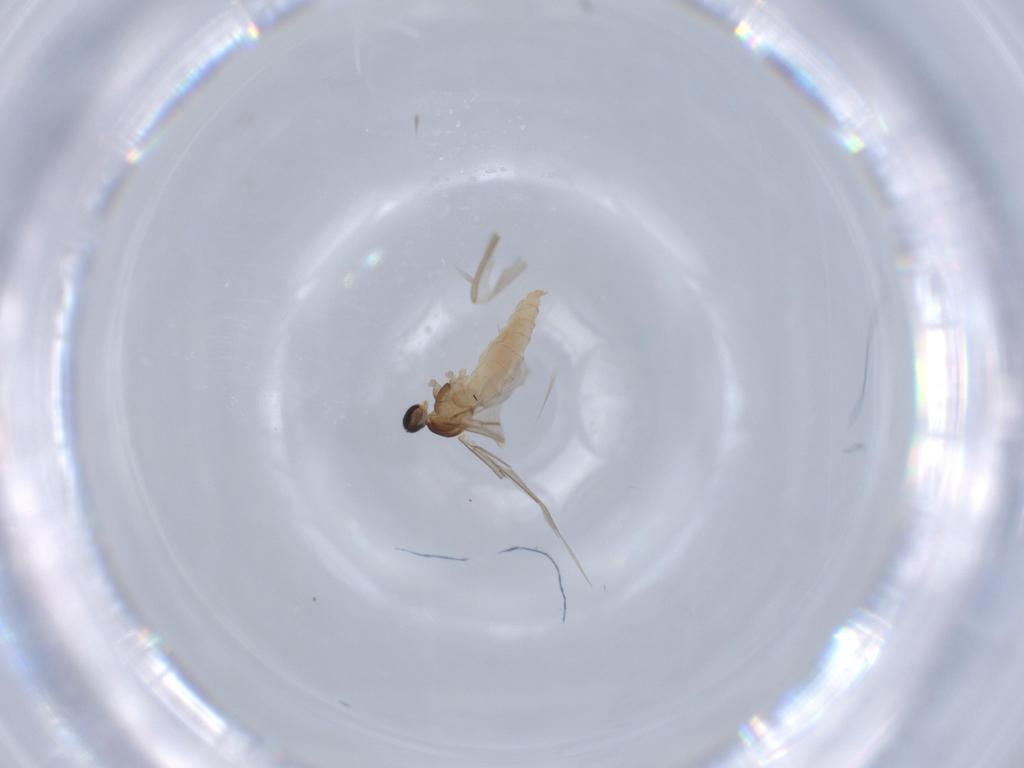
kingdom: Animalia
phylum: Arthropoda
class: Insecta
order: Diptera
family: Cecidomyiidae
